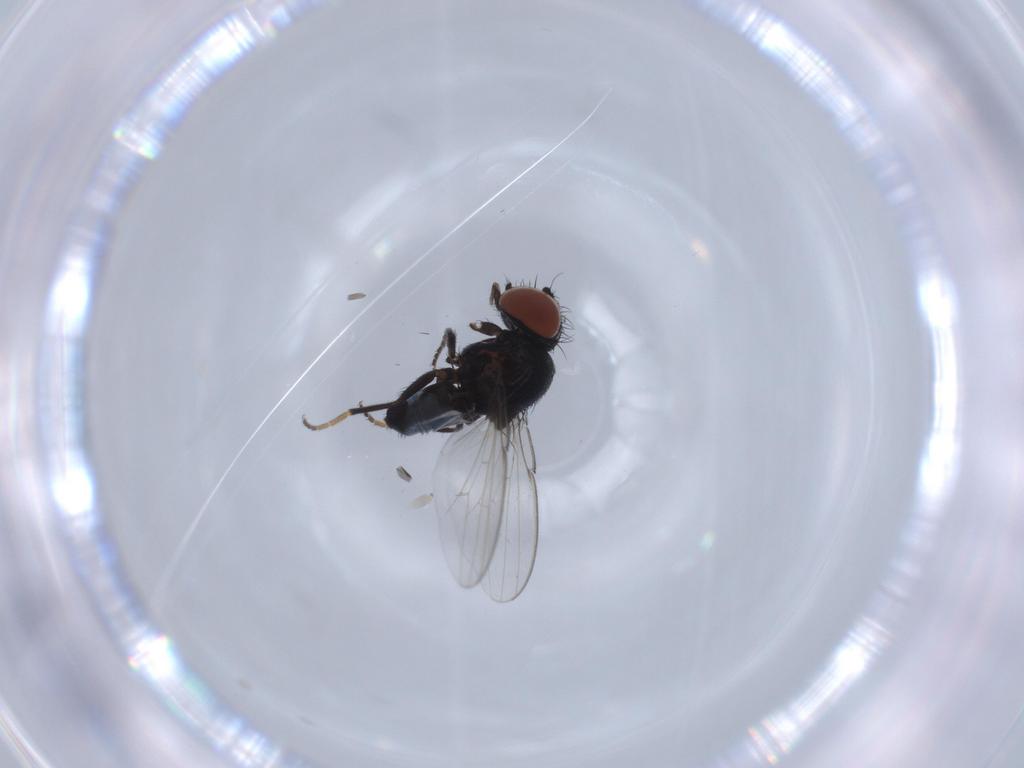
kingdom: Animalia
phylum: Arthropoda
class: Insecta
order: Diptera
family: Milichiidae
